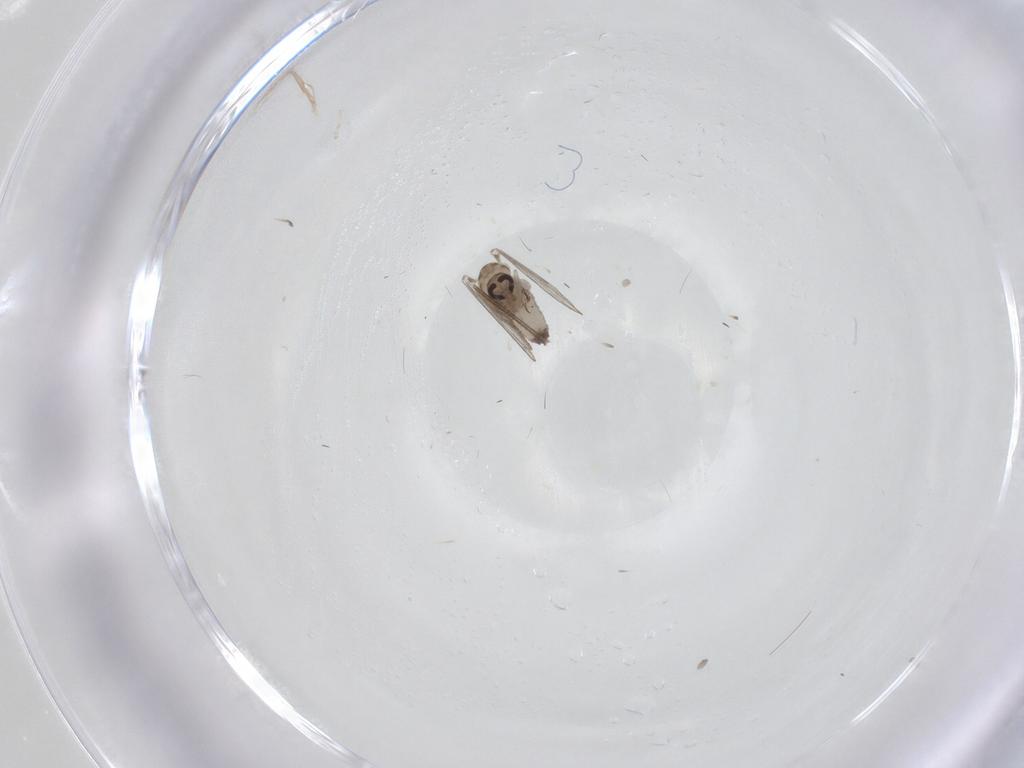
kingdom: Animalia
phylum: Arthropoda
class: Insecta
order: Diptera
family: Psychodidae
